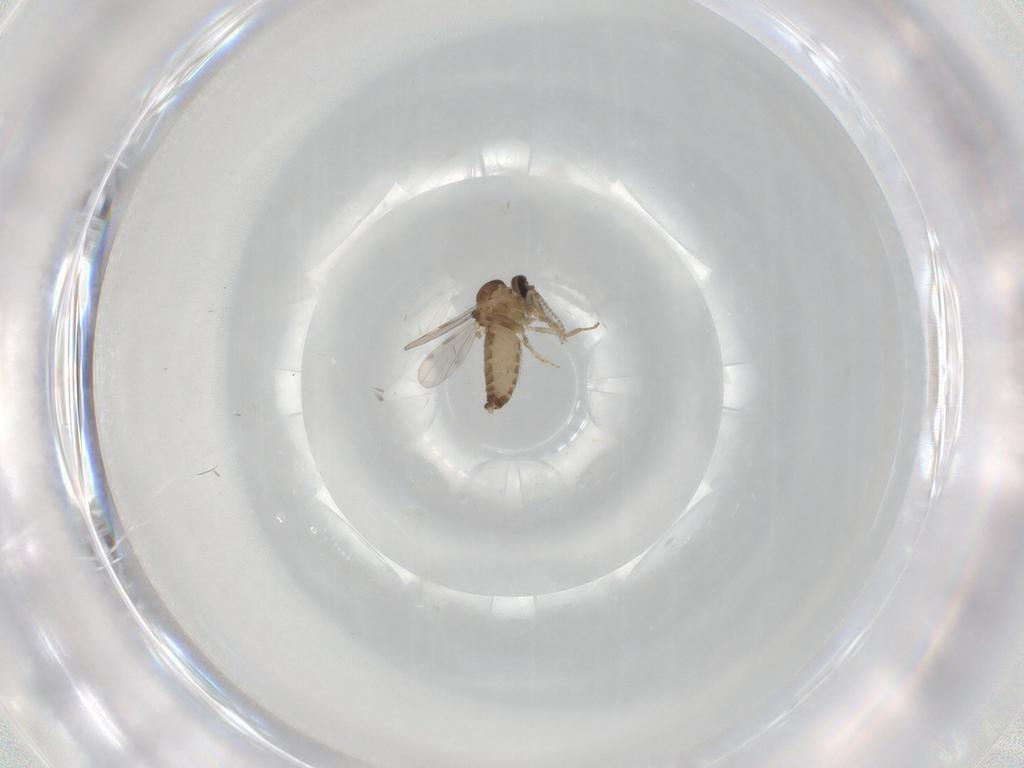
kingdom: Animalia
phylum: Arthropoda
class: Insecta
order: Diptera
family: Ceratopogonidae
